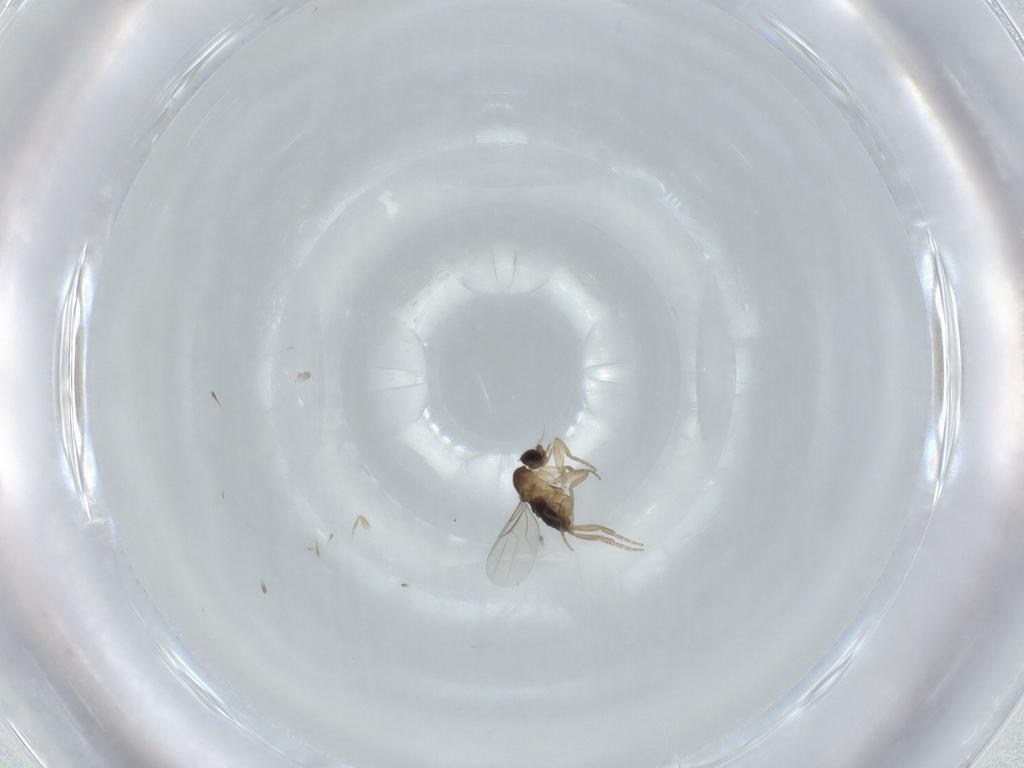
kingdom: Animalia
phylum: Arthropoda
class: Insecta
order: Diptera
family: Phoridae
